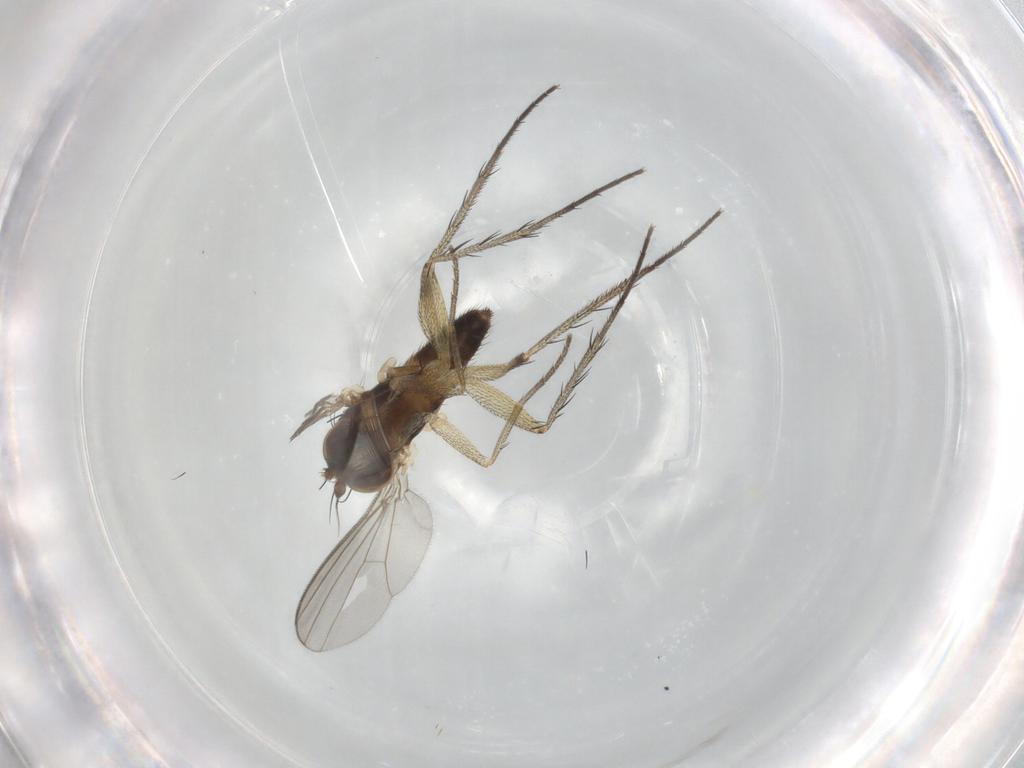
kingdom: Animalia
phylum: Arthropoda
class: Insecta
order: Diptera
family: Dolichopodidae
